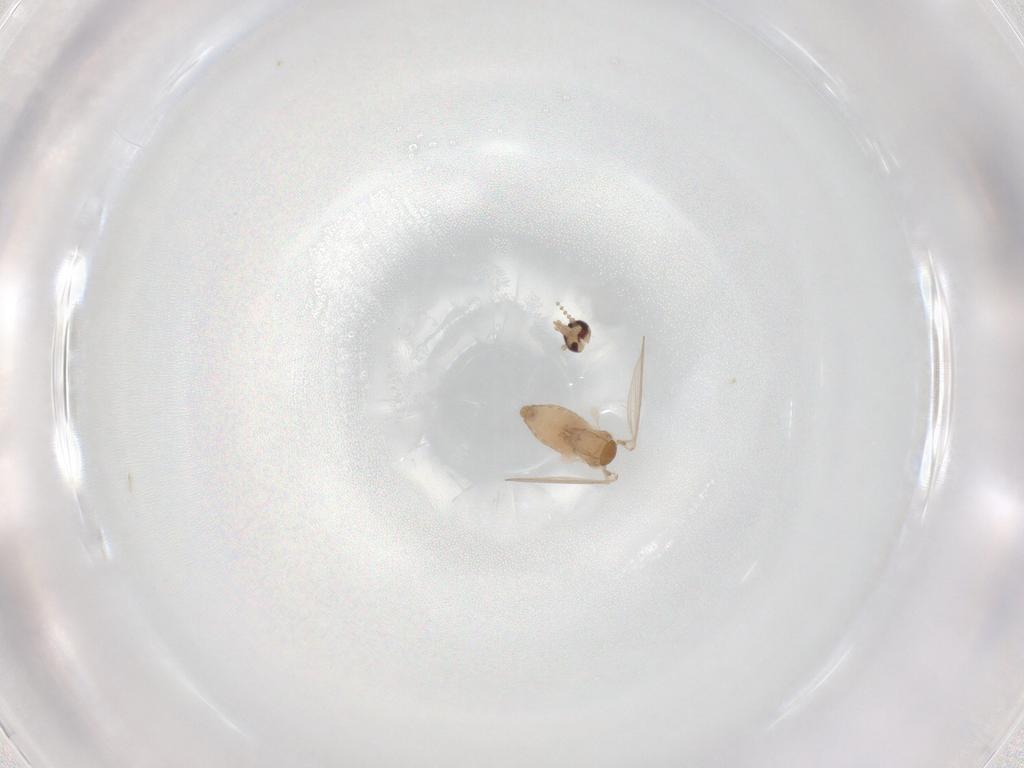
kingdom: Animalia
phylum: Arthropoda
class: Insecta
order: Diptera
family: Psychodidae
